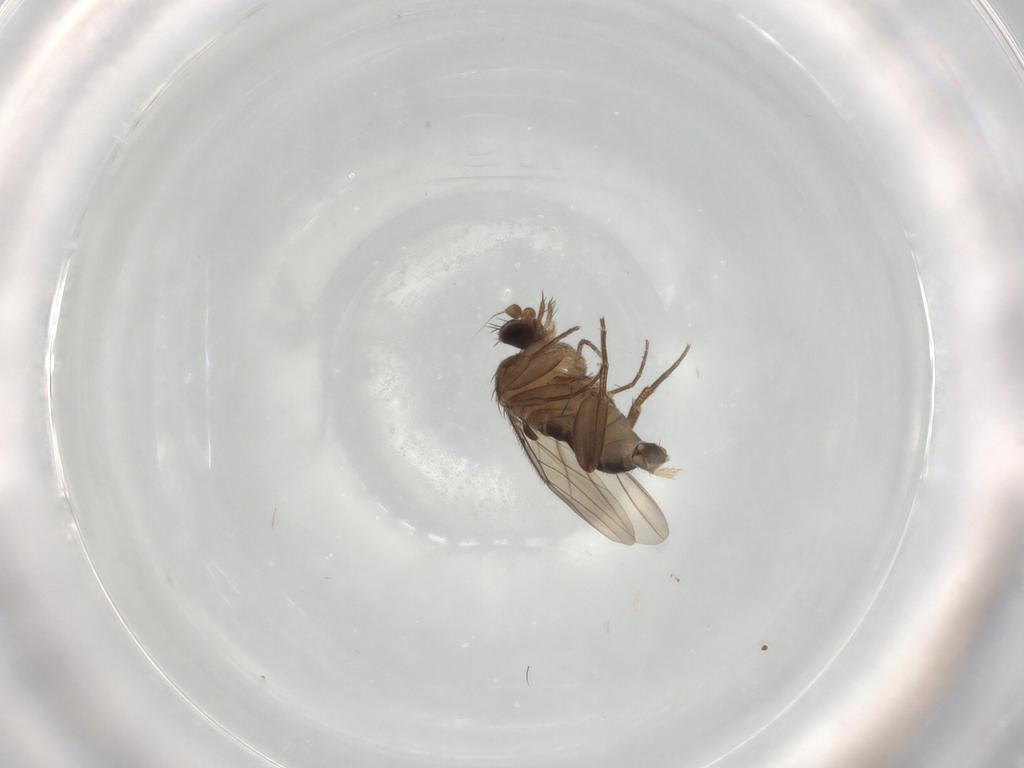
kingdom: Animalia
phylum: Arthropoda
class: Insecta
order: Diptera
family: Phoridae
